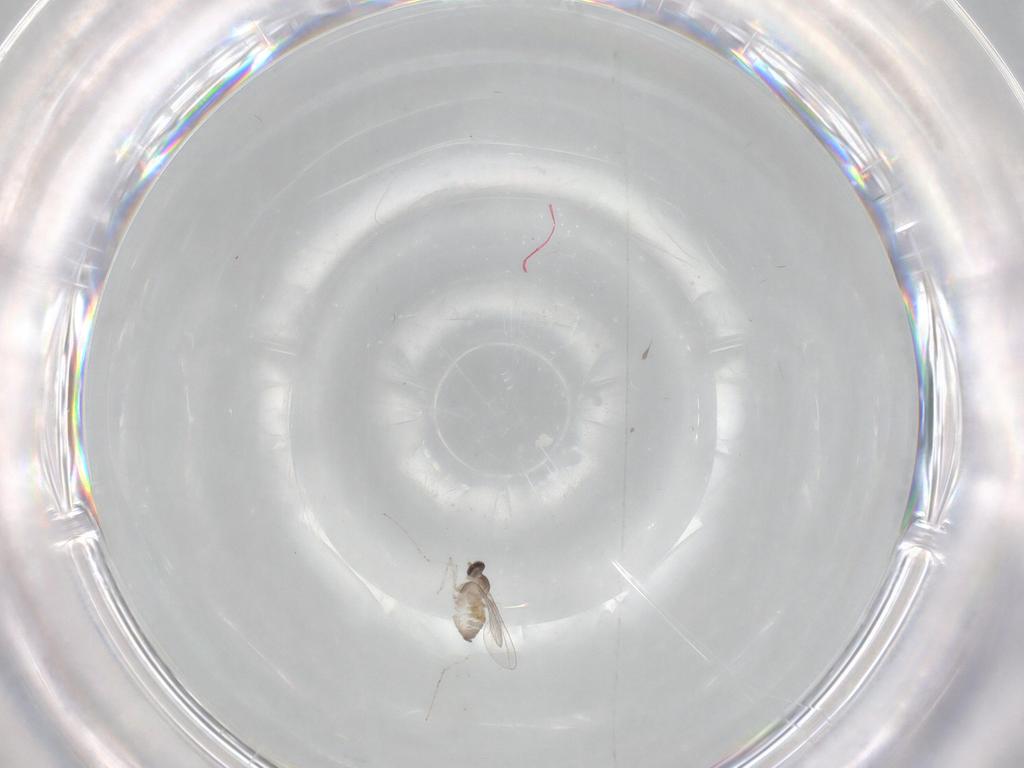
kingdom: Animalia
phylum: Arthropoda
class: Insecta
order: Diptera
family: Cecidomyiidae
